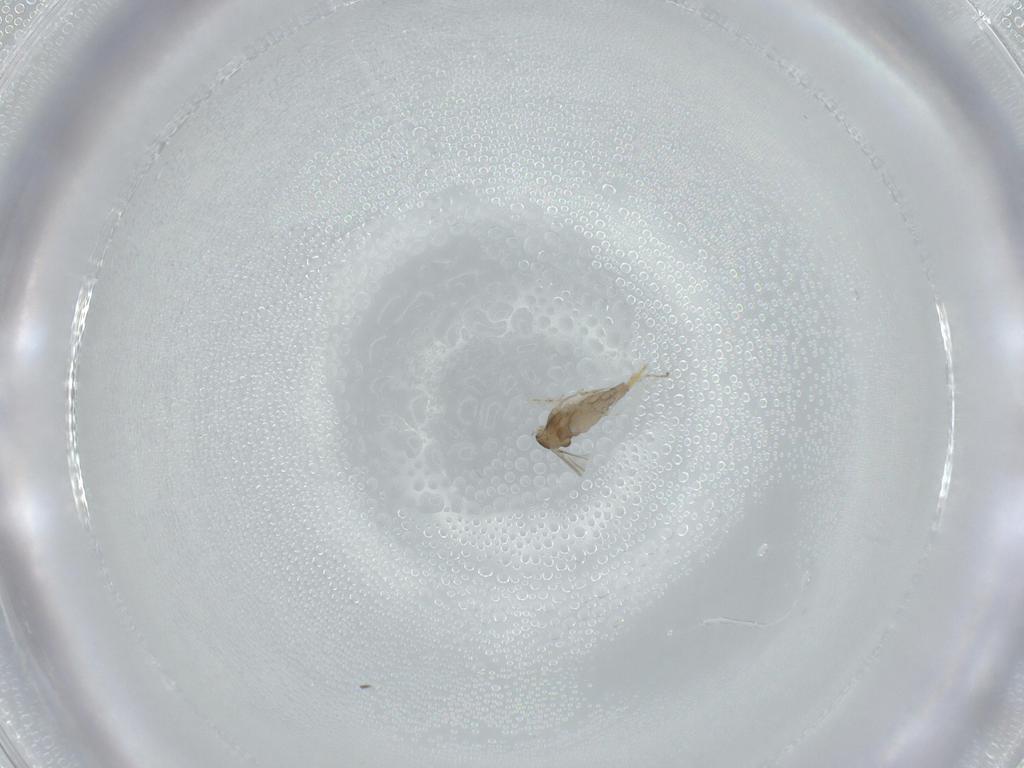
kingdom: Animalia
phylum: Arthropoda
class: Insecta
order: Diptera
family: Cecidomyiidae
